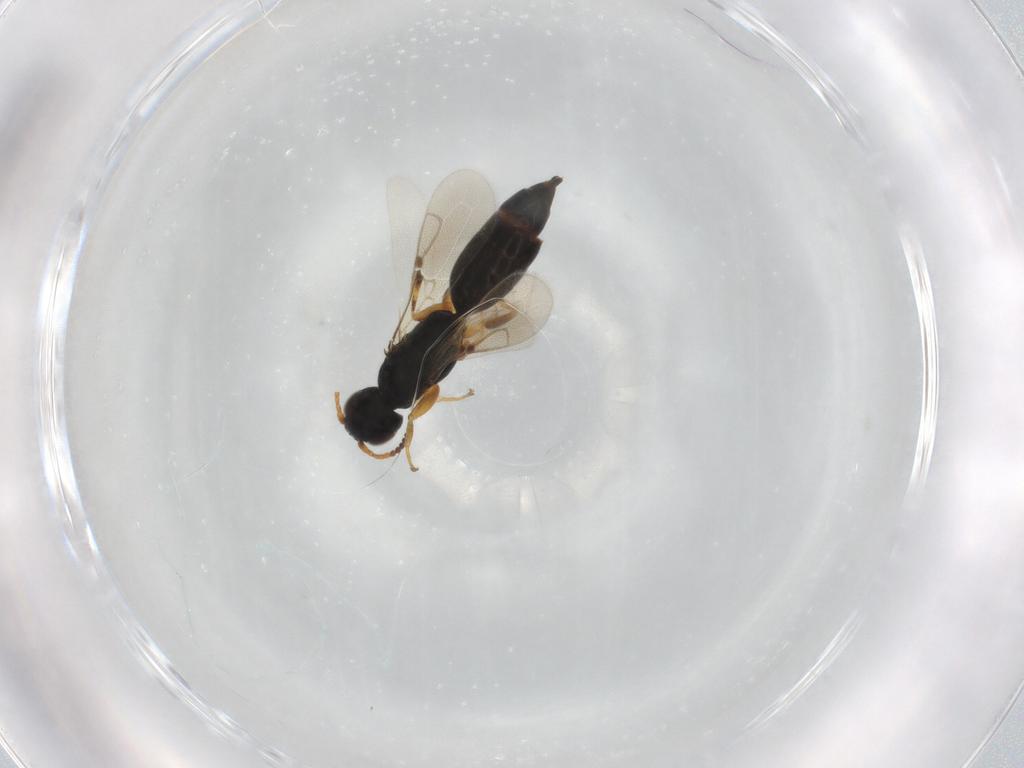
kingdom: Animalia
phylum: Arthropoda
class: Insecta
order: Hymenoptera
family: Bethylidae
